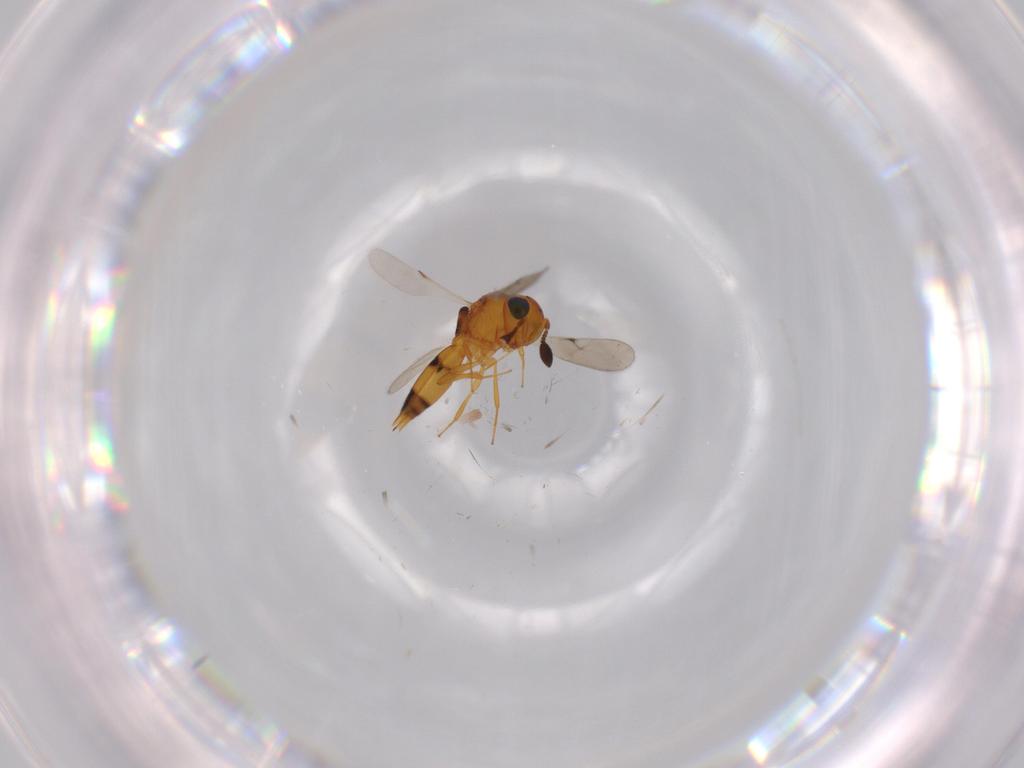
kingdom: Animalia
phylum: Arthropoda
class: Insecta
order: Hymenoptera
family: Scelionidae
